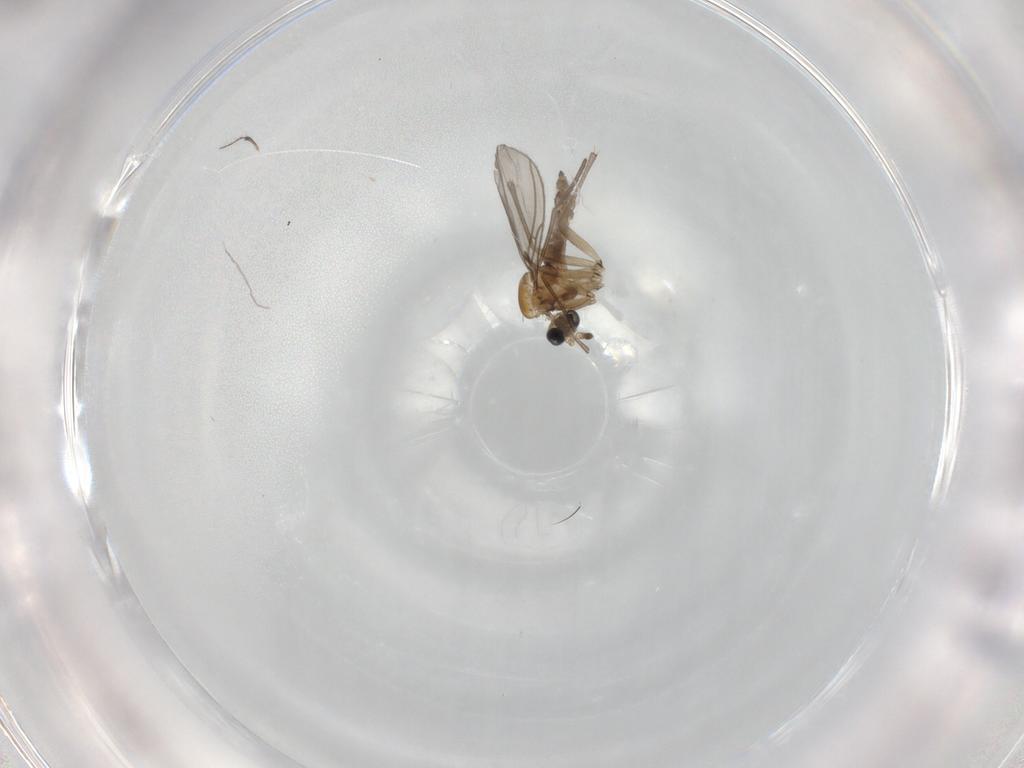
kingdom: Animalia
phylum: Arthropoda
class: Insecta
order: Diptera
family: Sciaridae
